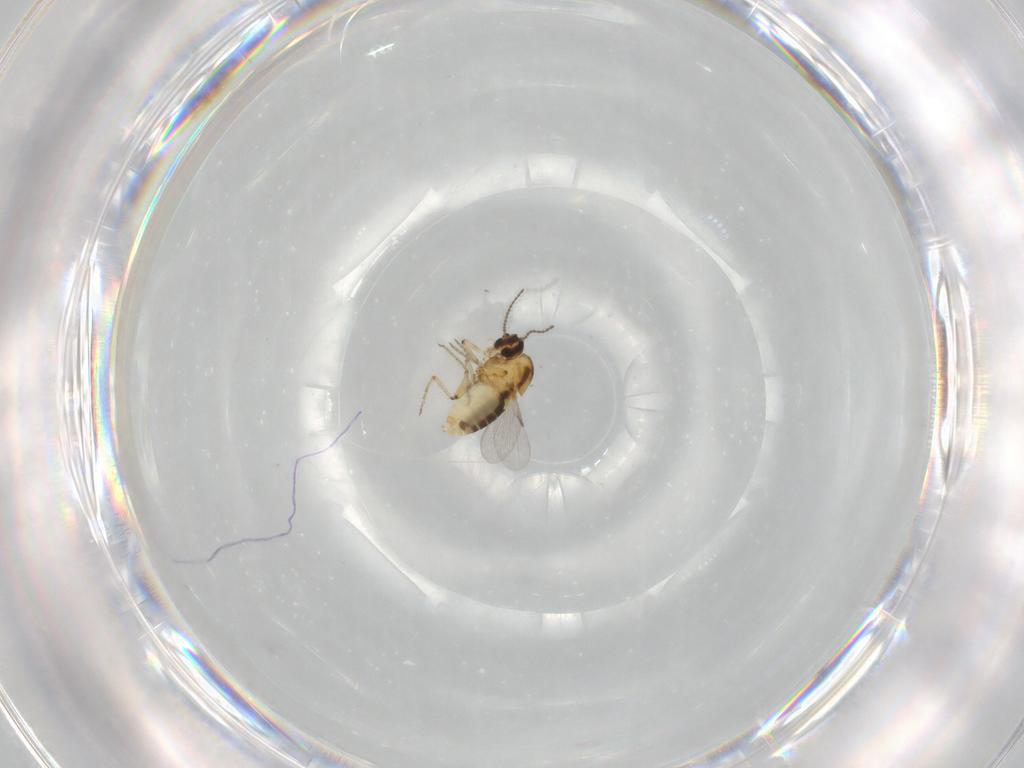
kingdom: Animalia
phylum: Arthropoda
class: Insecta
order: Diptera
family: Ceratopogonidae
